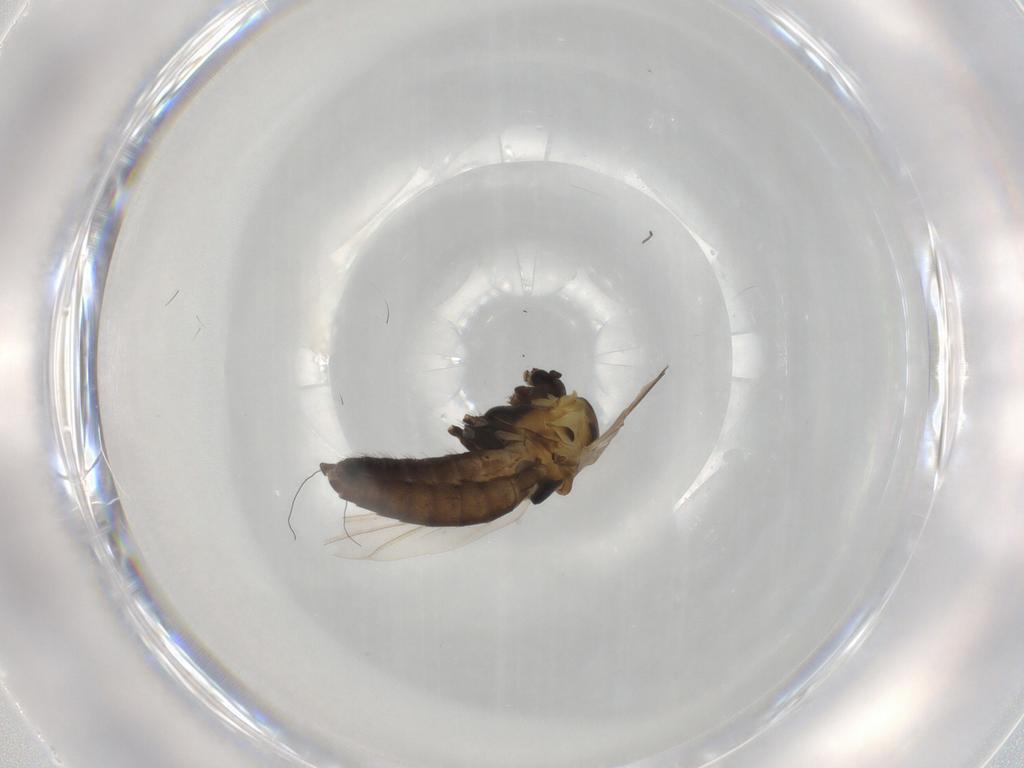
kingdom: Animalia
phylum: Arthropoda
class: Insecta
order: Diptera
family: Chironomidae
